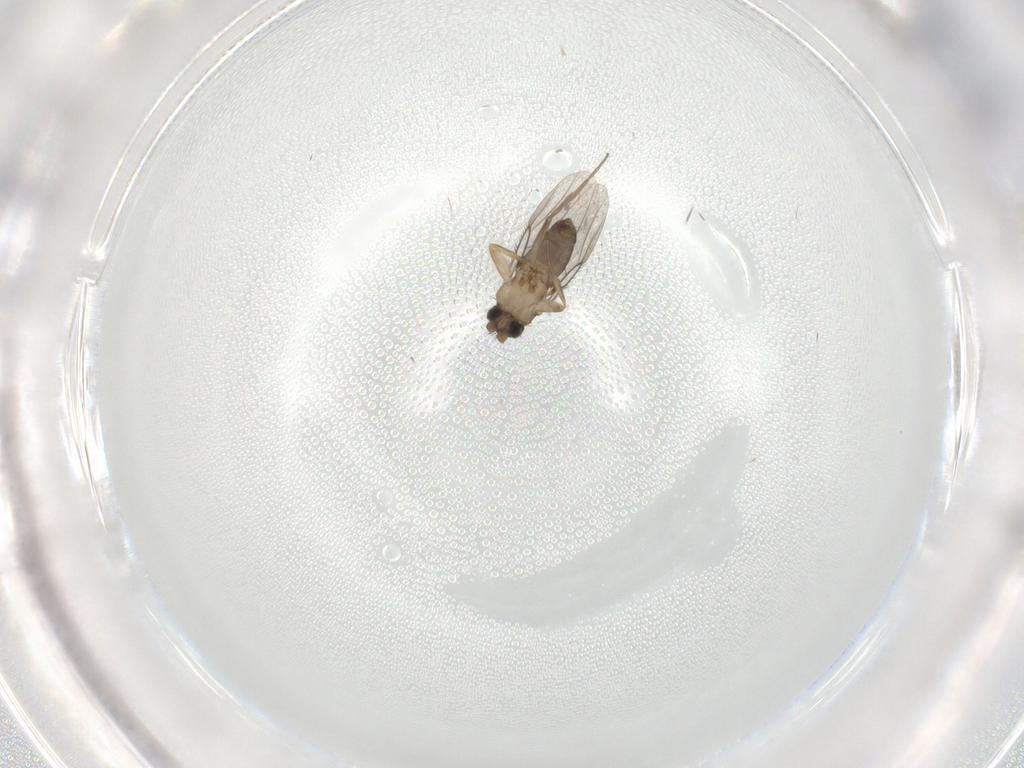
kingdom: Animalia
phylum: Arthropoda
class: Insecta
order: Diptera
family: Phoridae
